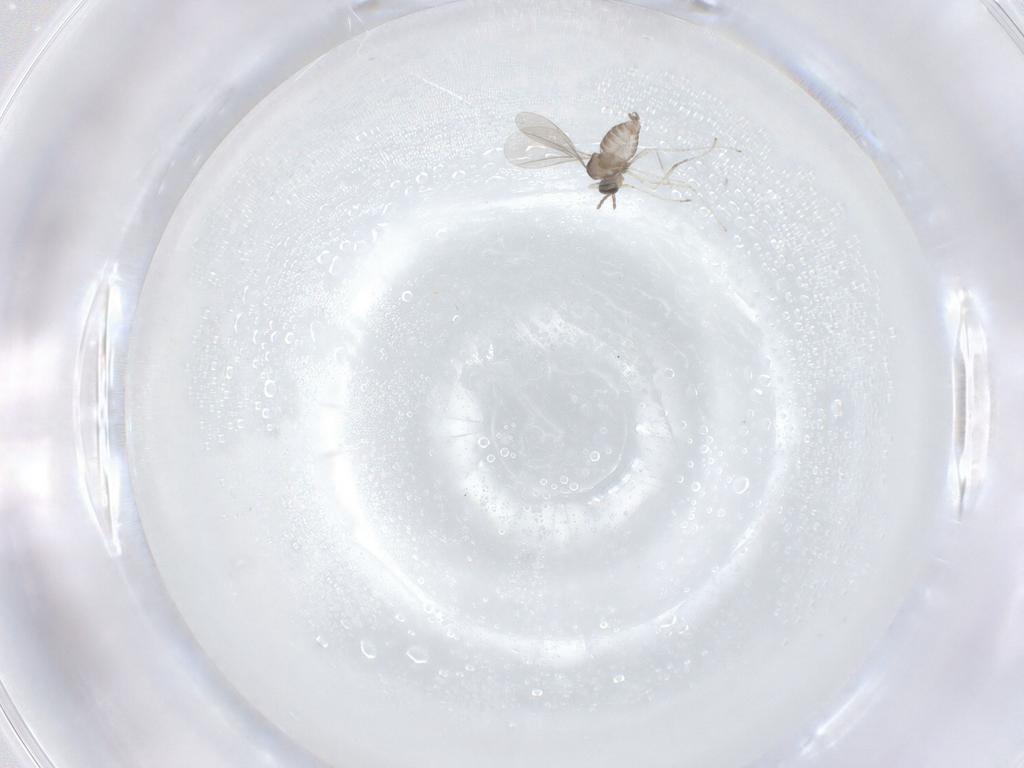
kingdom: Animalia
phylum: Arthropoda
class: Insecta
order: Diptera
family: Cecidomyiidae
